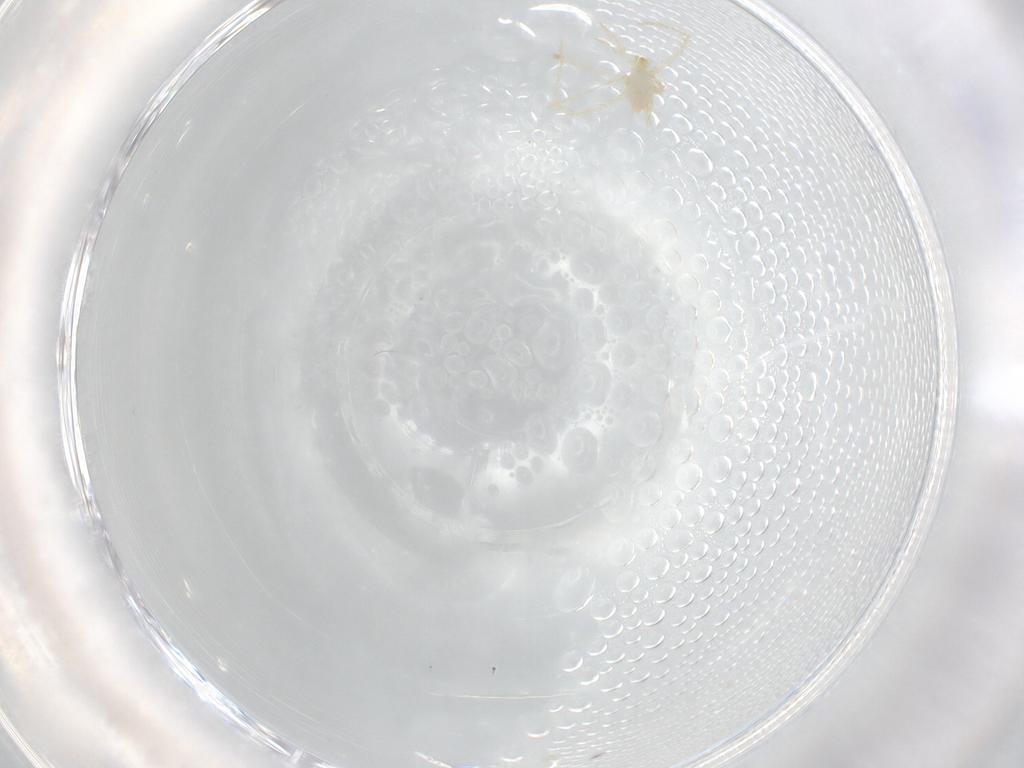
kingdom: Animalia
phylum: Arthropoda
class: Arachnida
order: Trombidiformes
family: Erythraeidae
